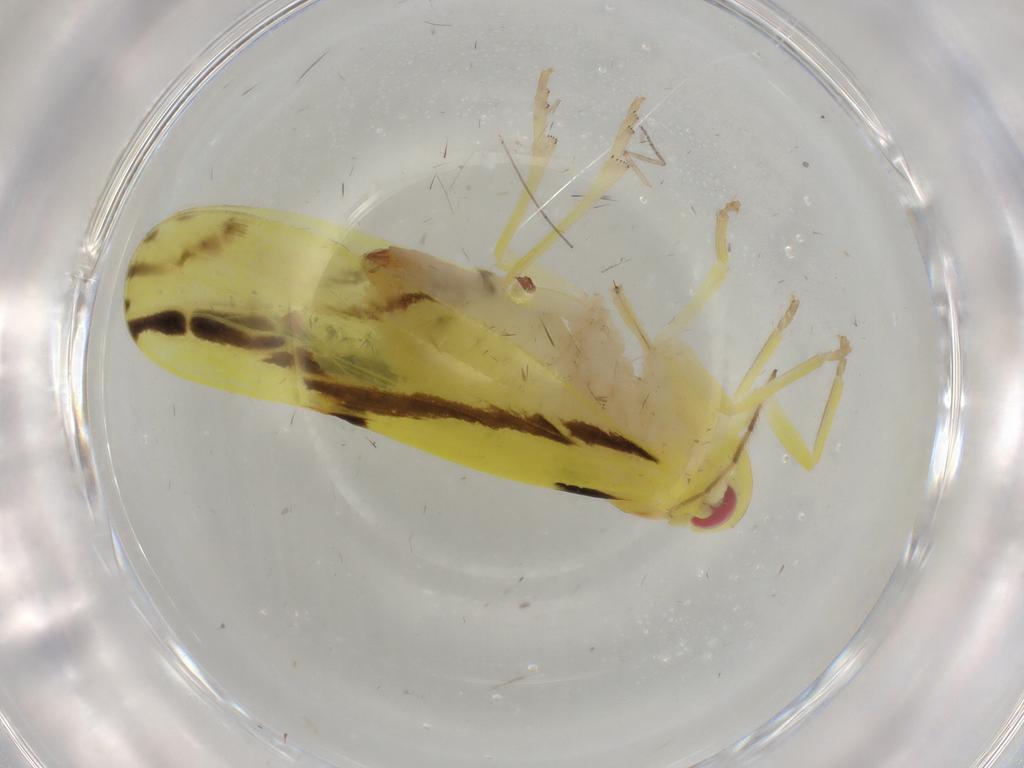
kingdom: Animalia
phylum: Arthropoda
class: Insecta
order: Hemiptera
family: Derbidae
